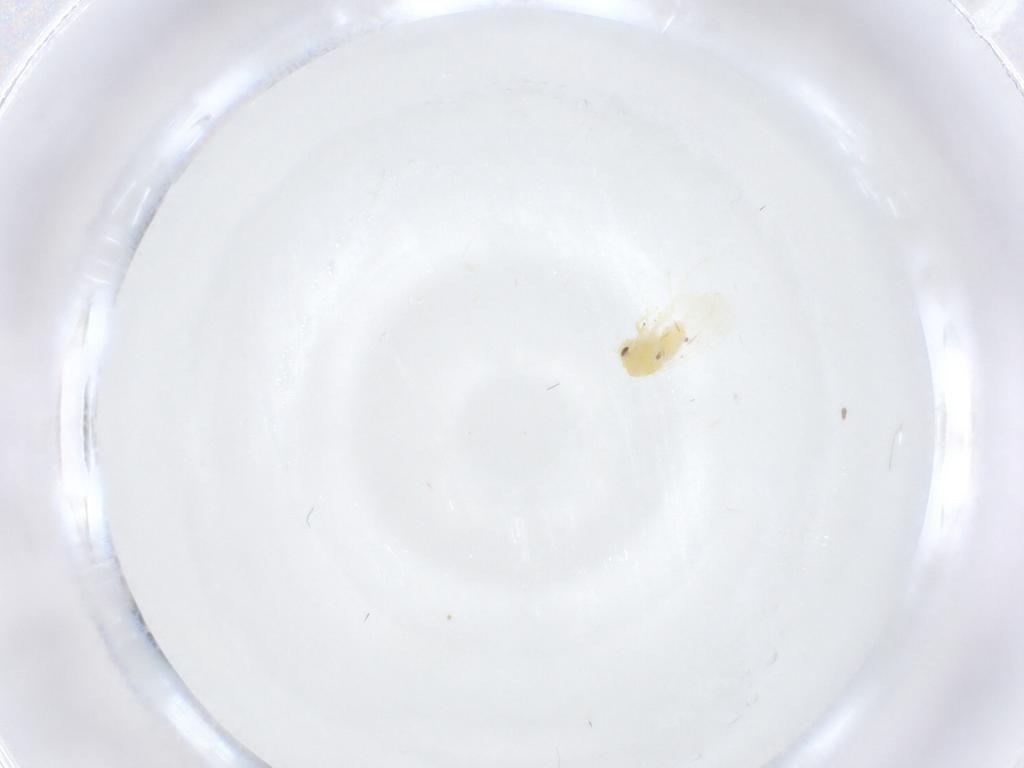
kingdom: Animalia
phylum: Arthropoda
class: Insecta
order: Hemiptera
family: Aleyrodidae
